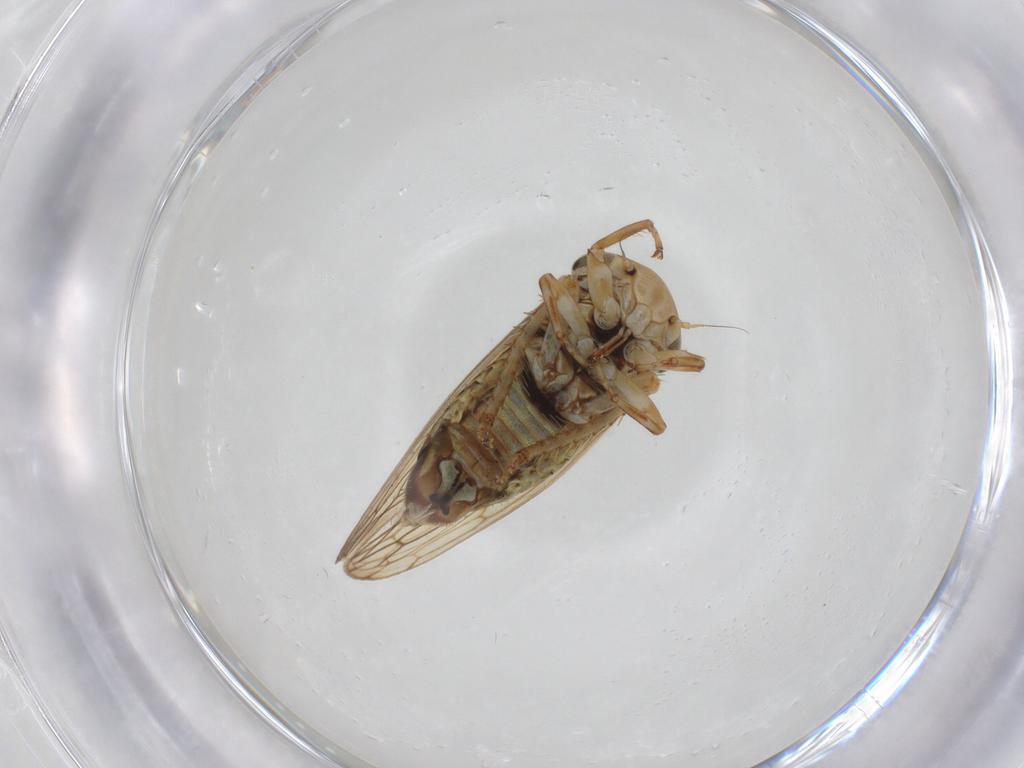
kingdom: Animalia
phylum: Arthropoda
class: Insecta
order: Hemiptera
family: Cicadellidae
